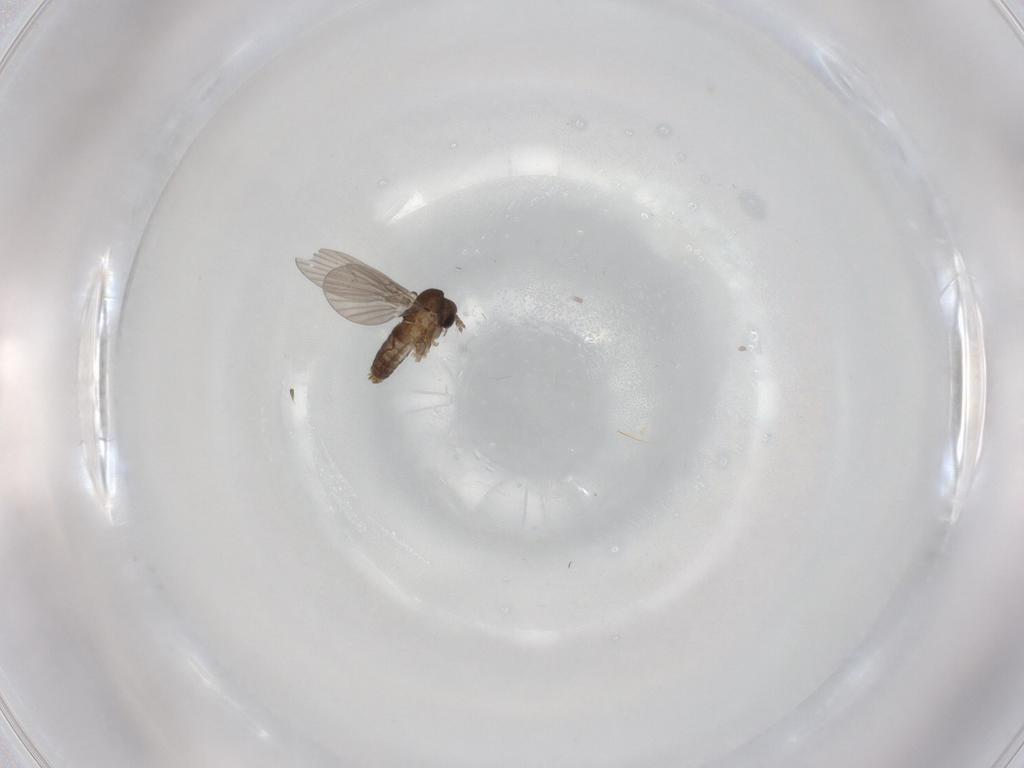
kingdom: Animalia
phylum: Arthropoda
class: Insecta
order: Diptera
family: Ephydridae
